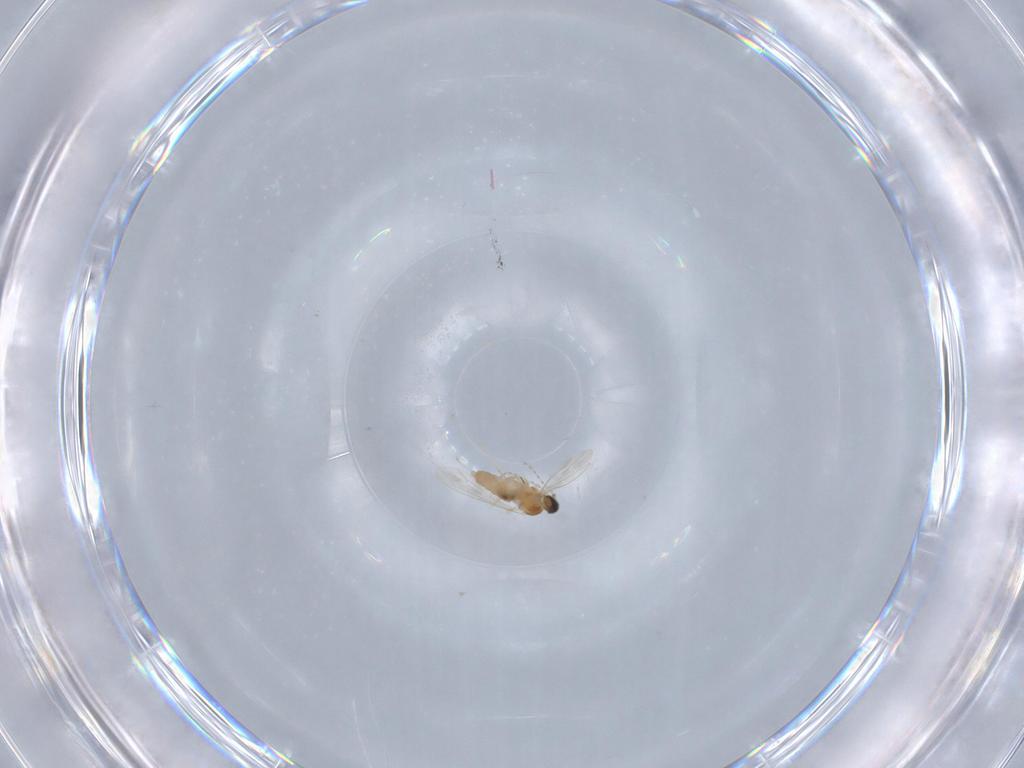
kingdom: Animalia
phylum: Arthropoda
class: Insecta
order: Diptera
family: Cecidomyiidae
